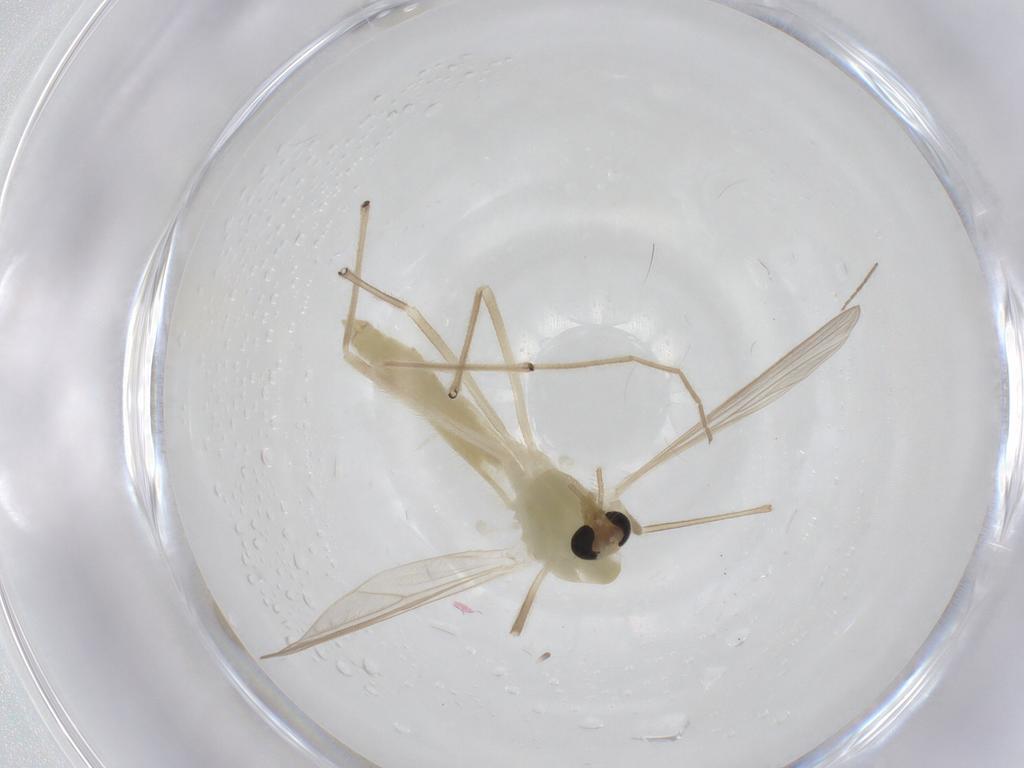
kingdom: Animalia
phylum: Arthropoda
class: Insecta
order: Diptera
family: Chironomidae
